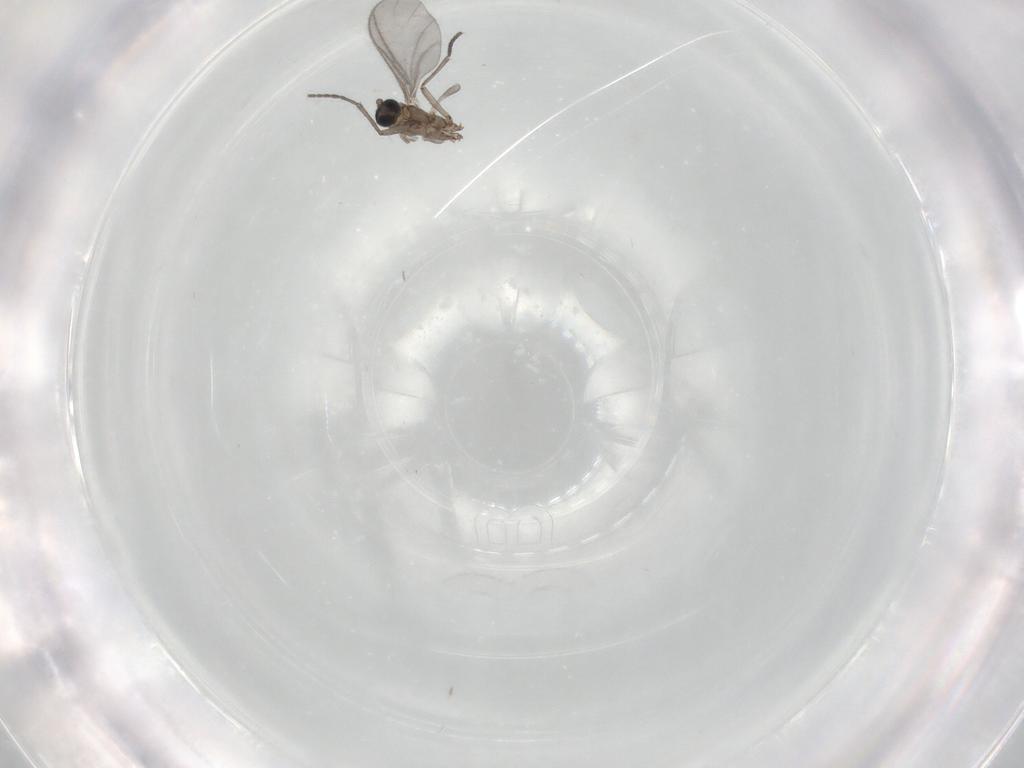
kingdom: Animalia
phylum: Arthropoda
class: Insecta
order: Diptera
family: Sciaridae
